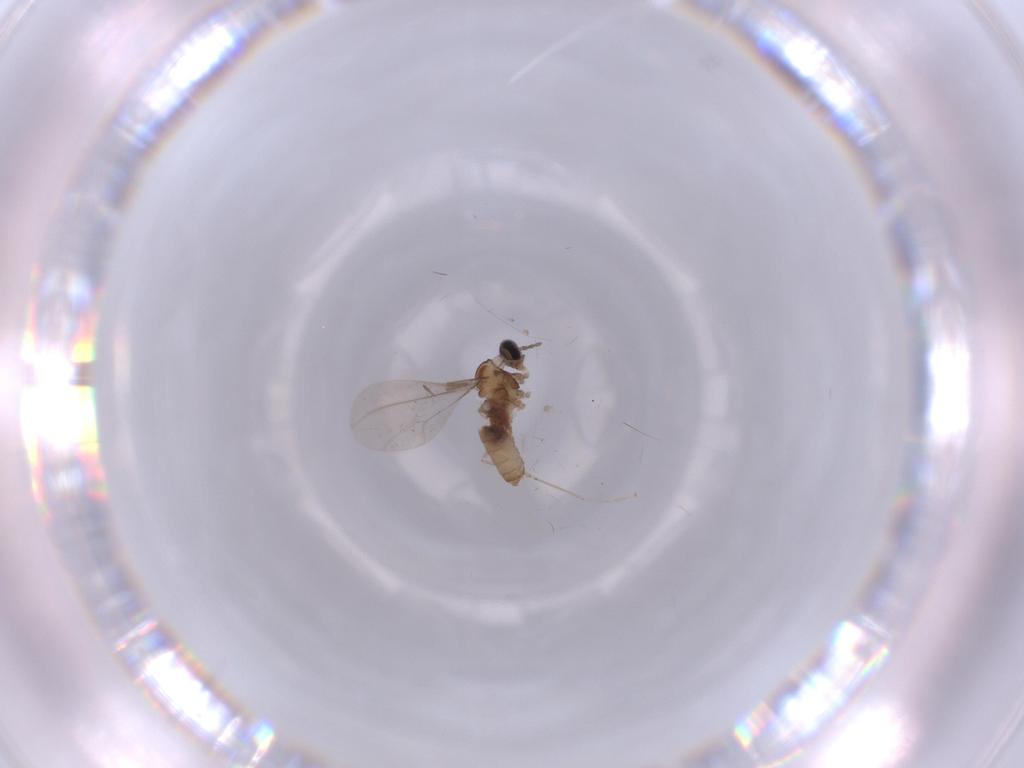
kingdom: Animalia
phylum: Arthropoda
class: Insecta
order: Diptera
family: Cecidomyiidae
